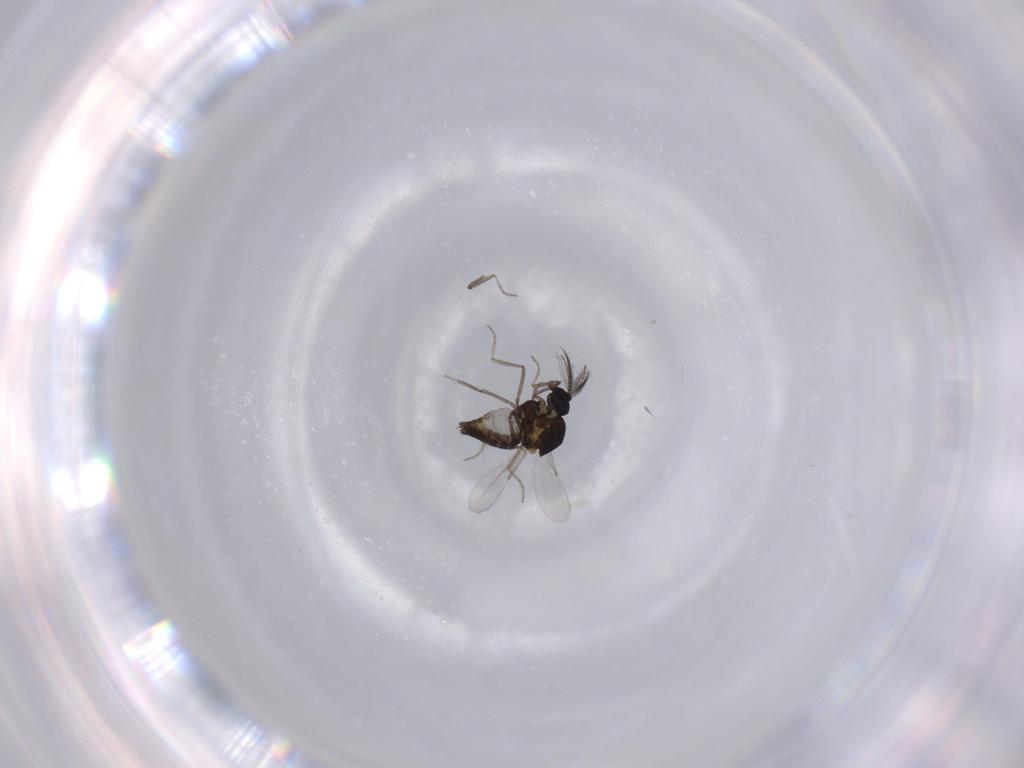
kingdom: Animalia
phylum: Arthropoda
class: Insecta
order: Diptera
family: Ceratopogonidae
